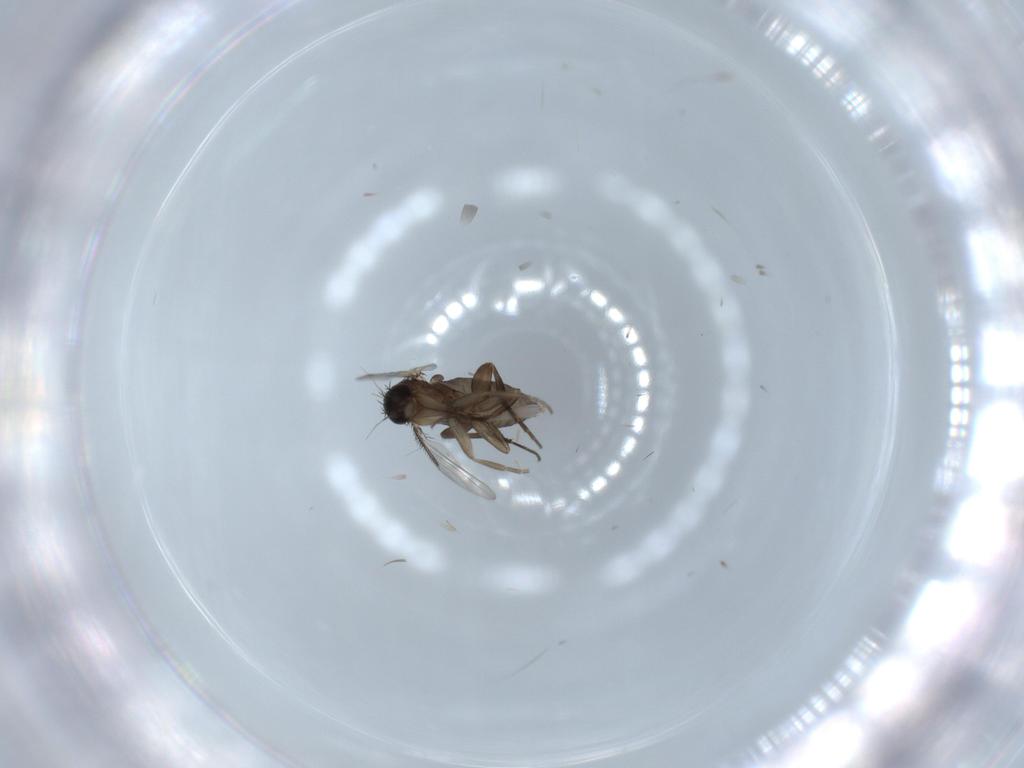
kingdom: Animalia
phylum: Arthropoda
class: Insecta
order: Diptera
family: Phoridae
